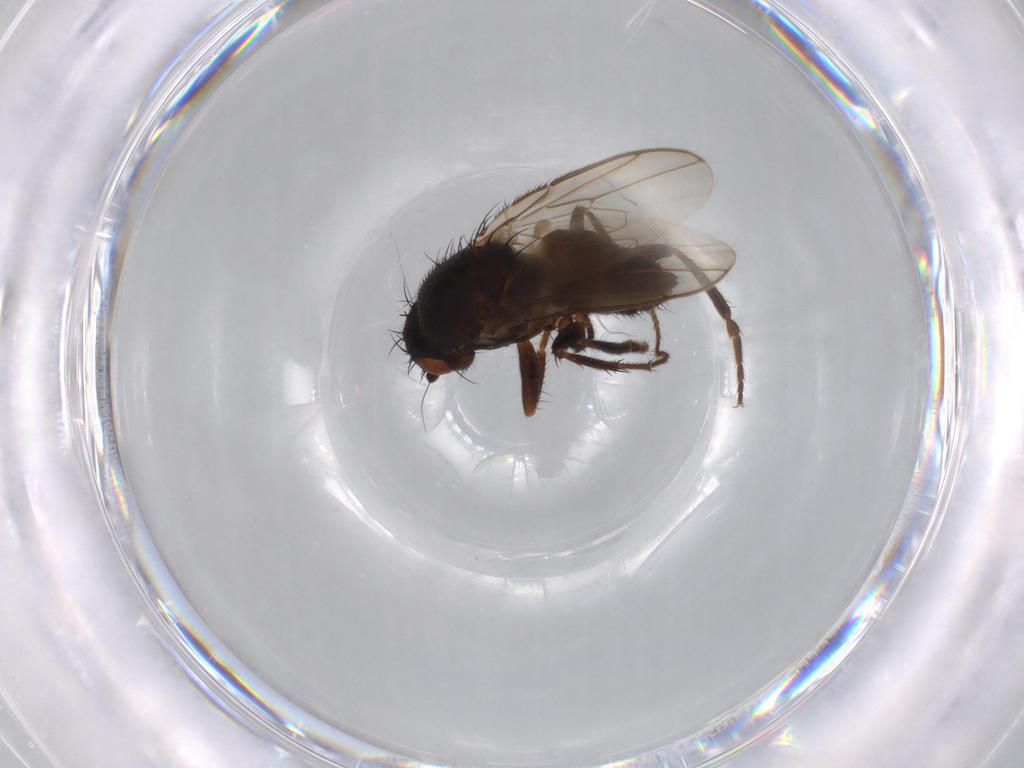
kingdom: Animalia
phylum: Arthropoda
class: Insecta
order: Diptera
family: Sphaeroceridae
